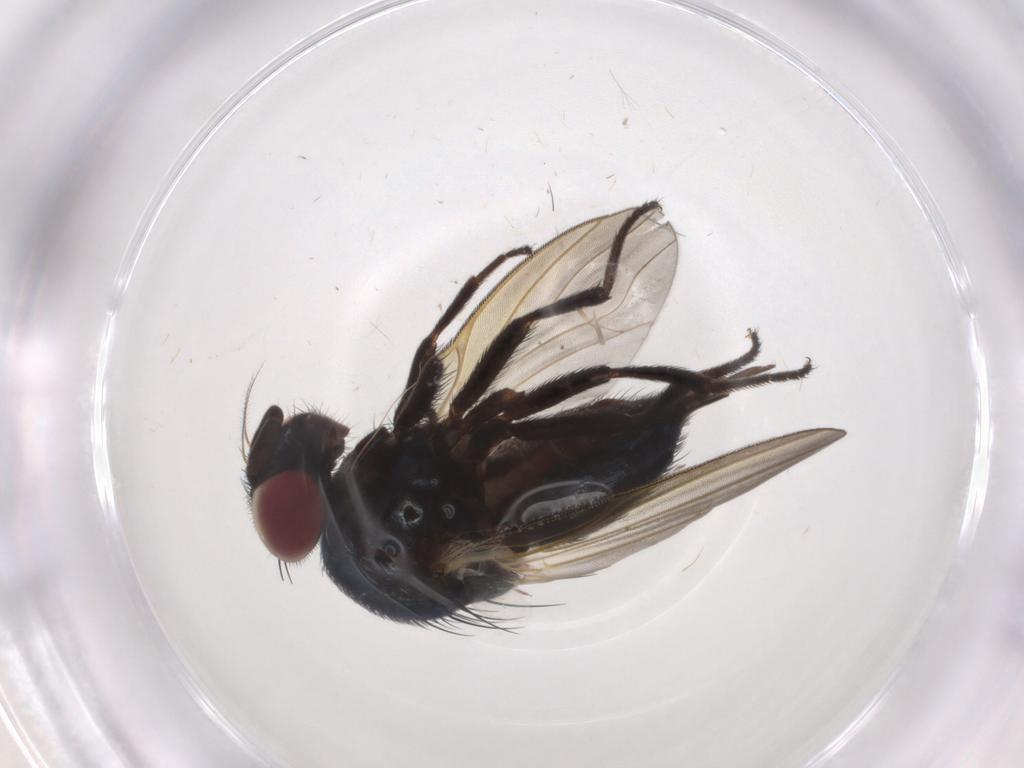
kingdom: Animalia
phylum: Arthropoda
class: Insecta
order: Diptera
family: Lonchaeidae
